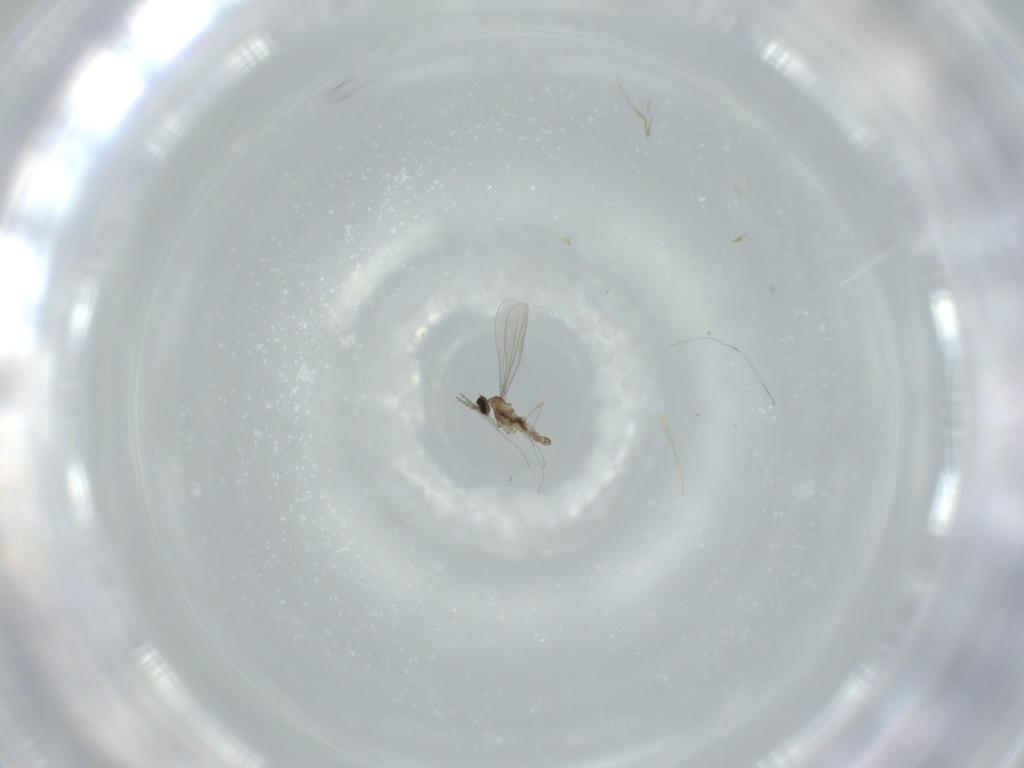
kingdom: Animalia
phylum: Arthropoda
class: Insecta
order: Diptera
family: Cecidomyiidae
